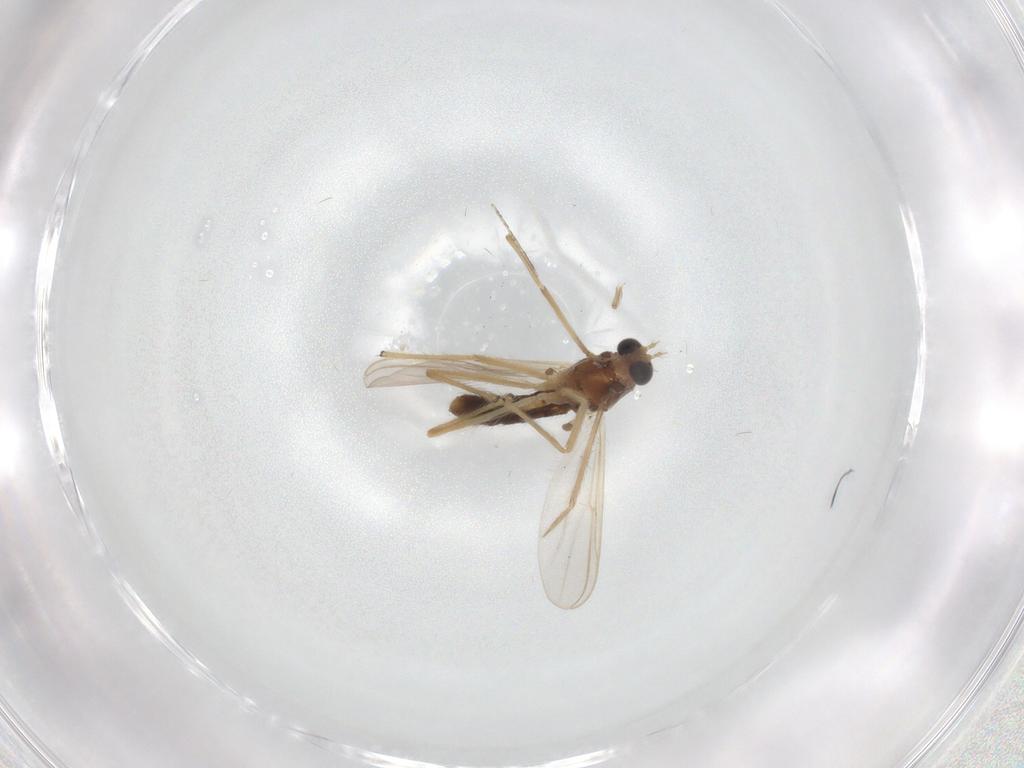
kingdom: Animalia
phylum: Arthropoda
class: Insecta
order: Diptera
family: Chironomidae
